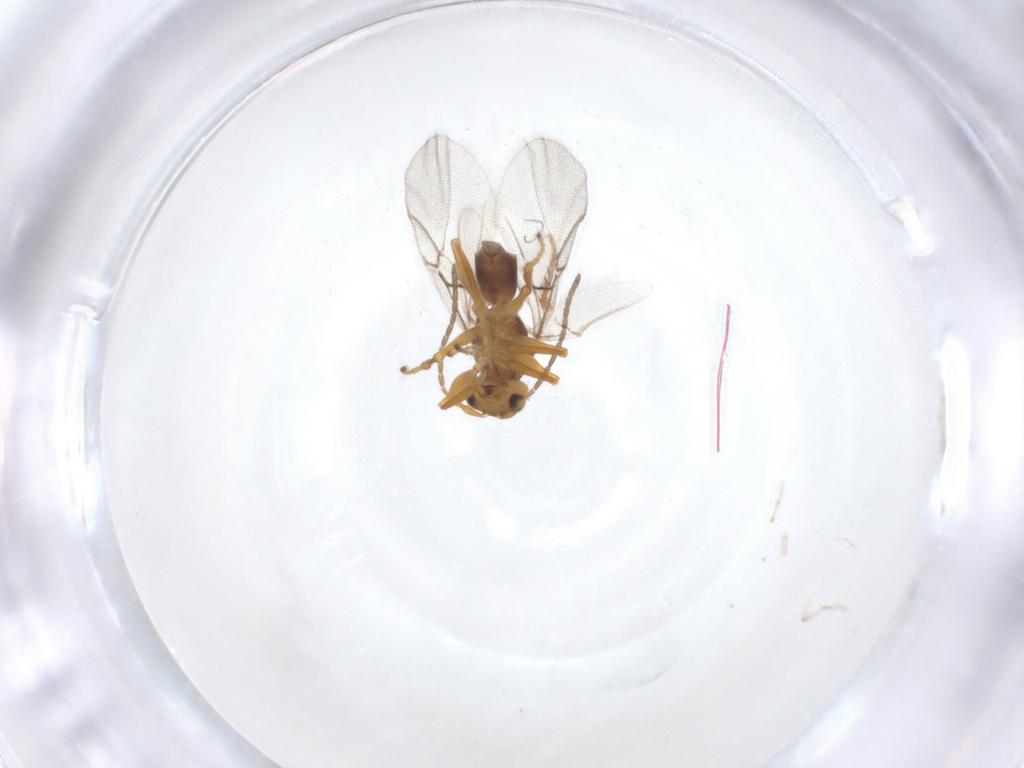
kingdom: Animalia
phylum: Arthropoda
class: Insecta
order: Hymenoptera
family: Cynipidae
